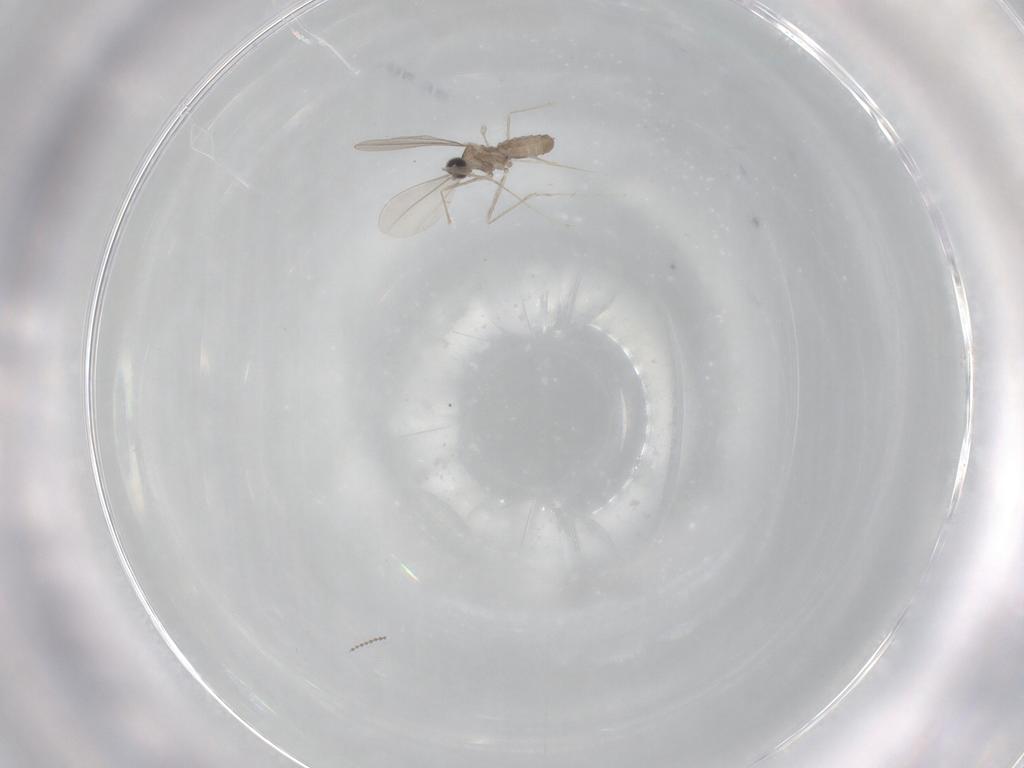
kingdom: Animalia
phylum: Arthropoda
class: Insecta
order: Diptera
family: Cecidomyiidae
